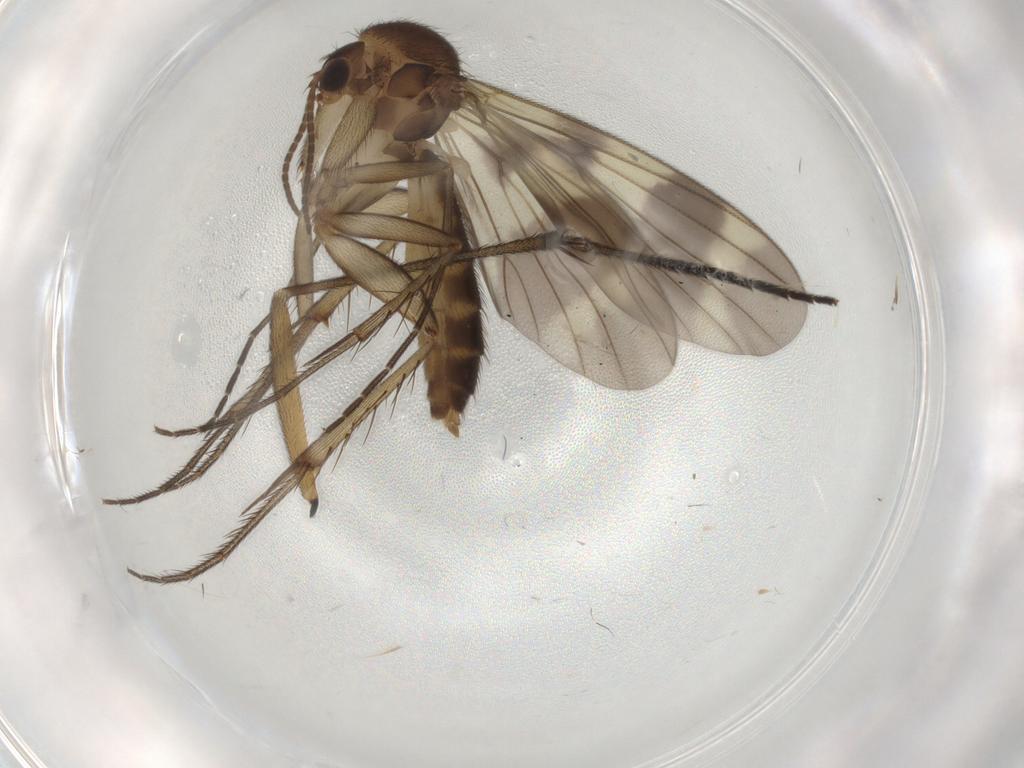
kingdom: Animalia
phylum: Arthropoda
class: Insecta
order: Diptera
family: Mycetophilidae
